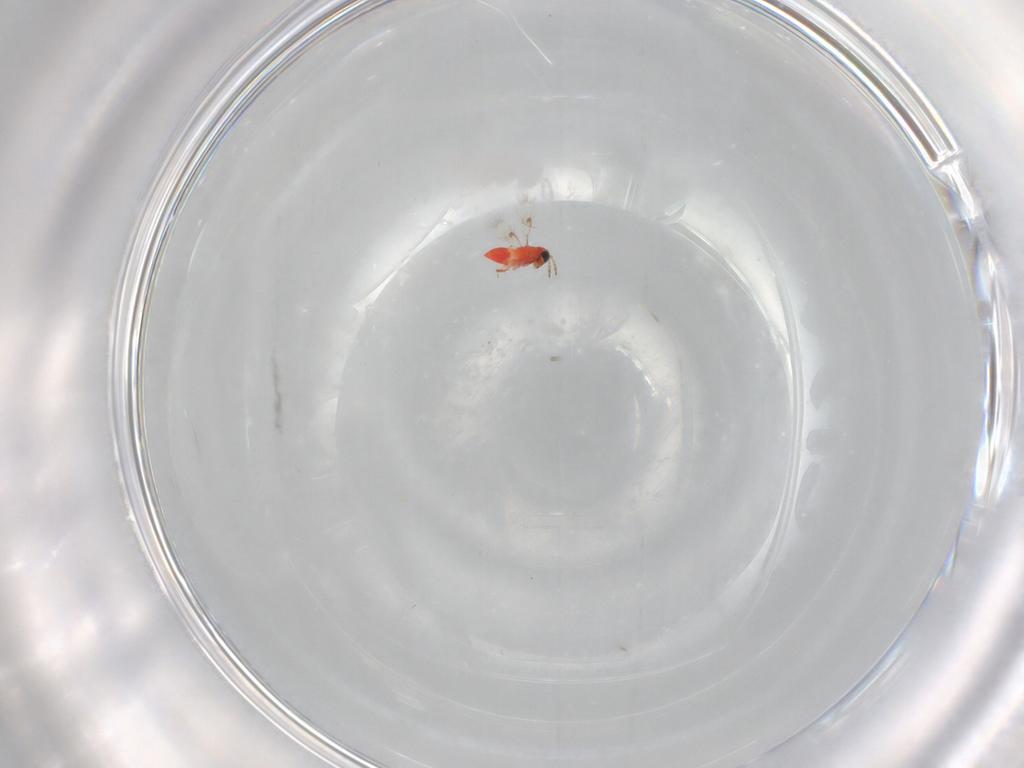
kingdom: Animalia
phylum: Arthropoda
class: Insecta
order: Hymenoptera
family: Trichogrammatidae
